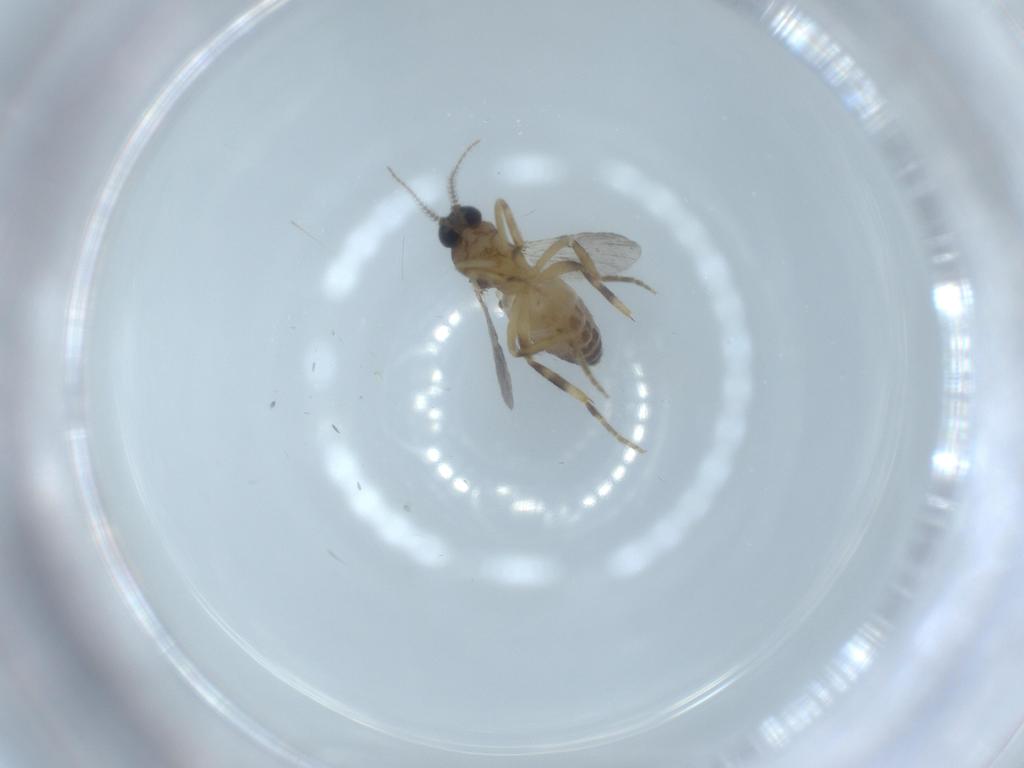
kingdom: Animalia
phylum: Arthropoda
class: Insecta
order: Diptera
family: Ceratopogonidae
